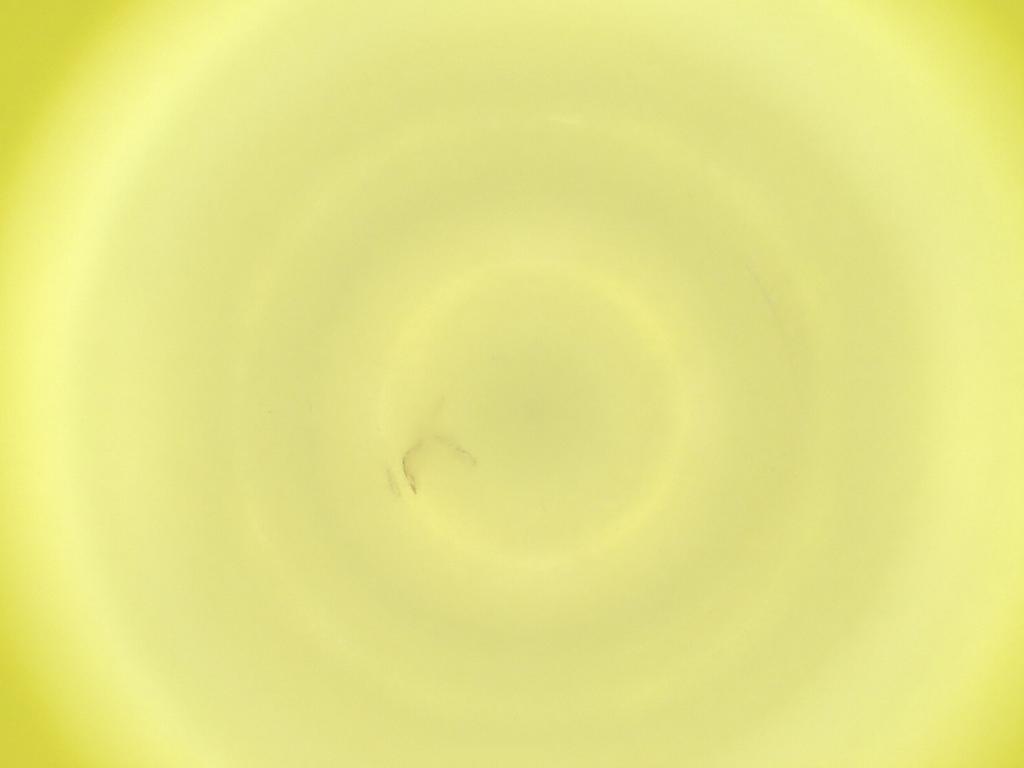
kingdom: Animalia
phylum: Arthropoda
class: Insecta
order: Diptera
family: Cecidomyiidae
